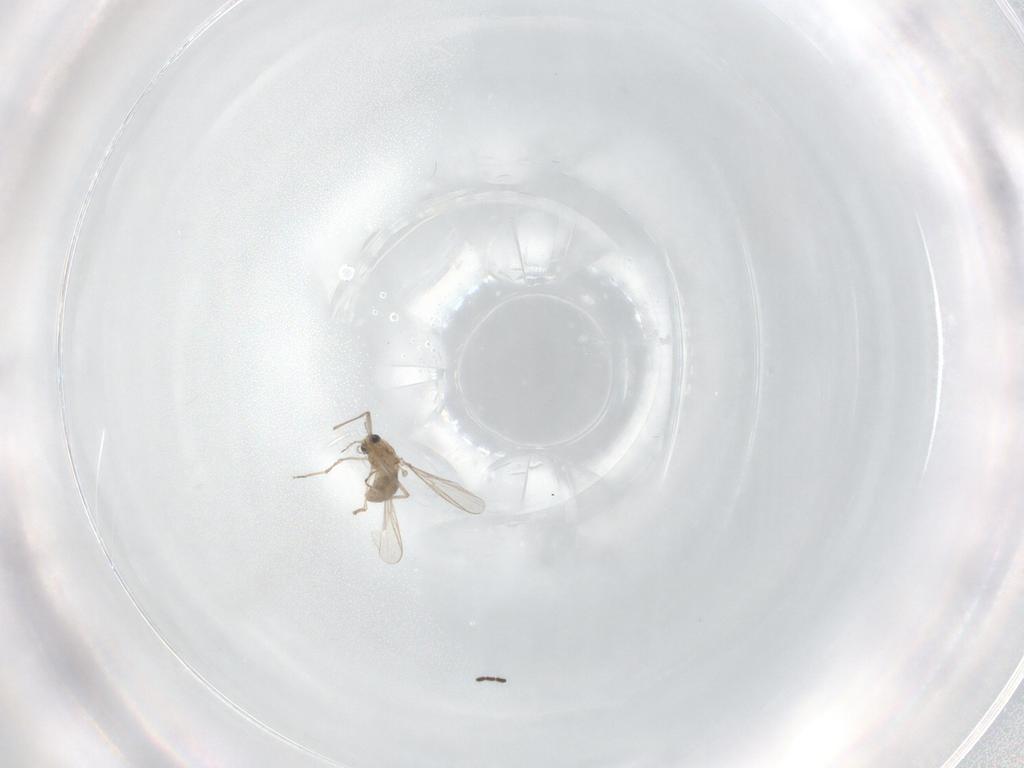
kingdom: Animalia
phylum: Arthropoda
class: Insecta
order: Diptera
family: Chironomidae
